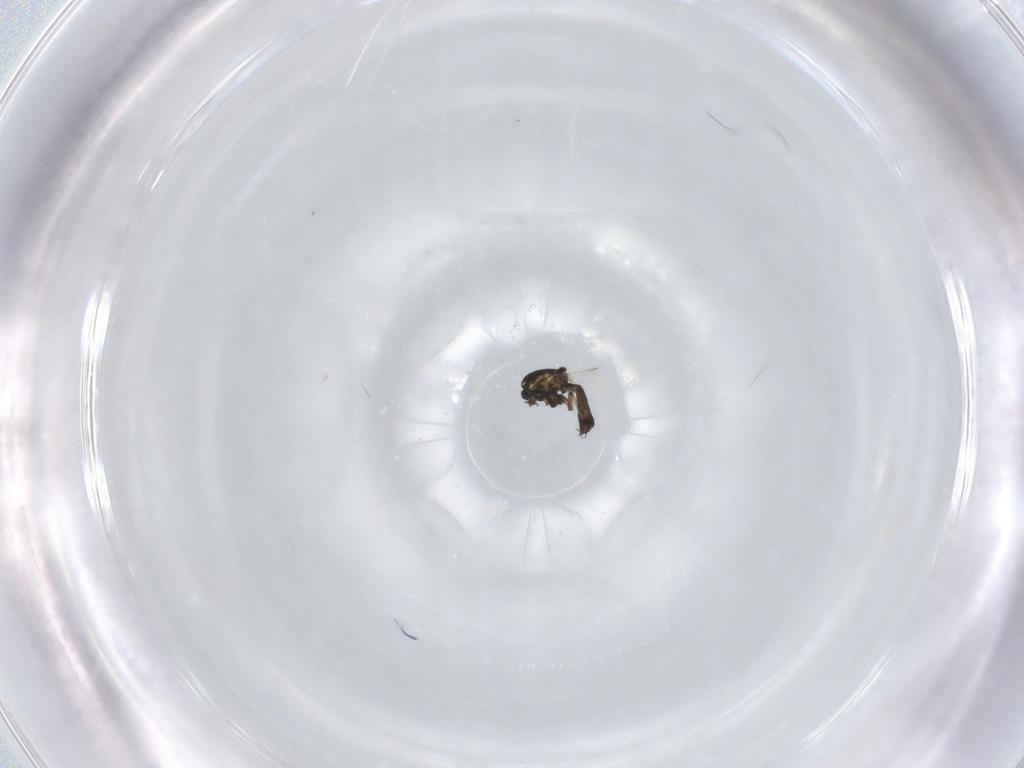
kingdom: Animalia
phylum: Arthropoda
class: Insecta
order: Diptera
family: Ceratopogonidae
